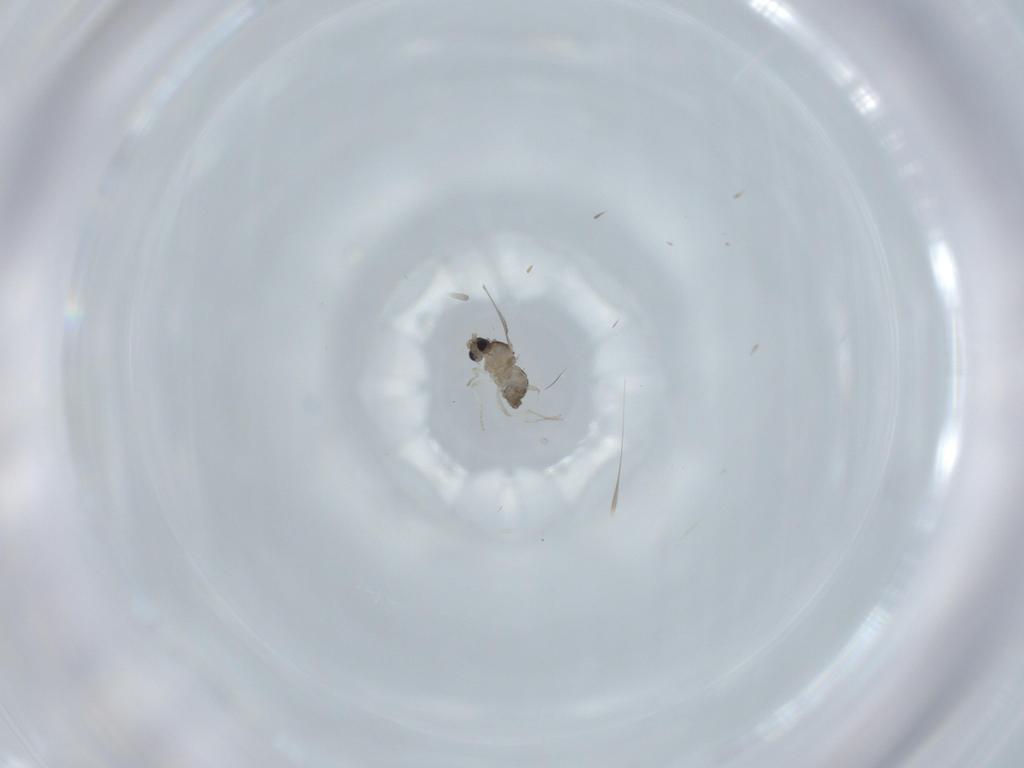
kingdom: Animalia
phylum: Arthropoda
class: Insecta
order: Diptera
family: Cecidomyiidae
